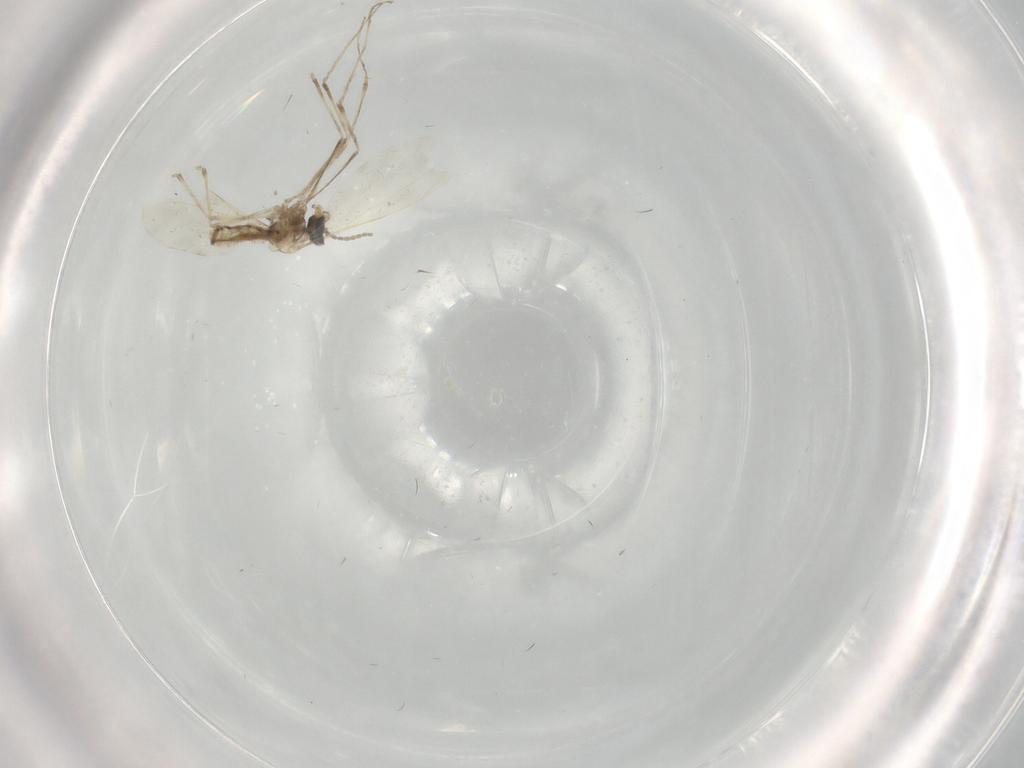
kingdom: Animalia
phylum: Arthropoda
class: Insecta
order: Diptera
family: Cecidomyiidae
